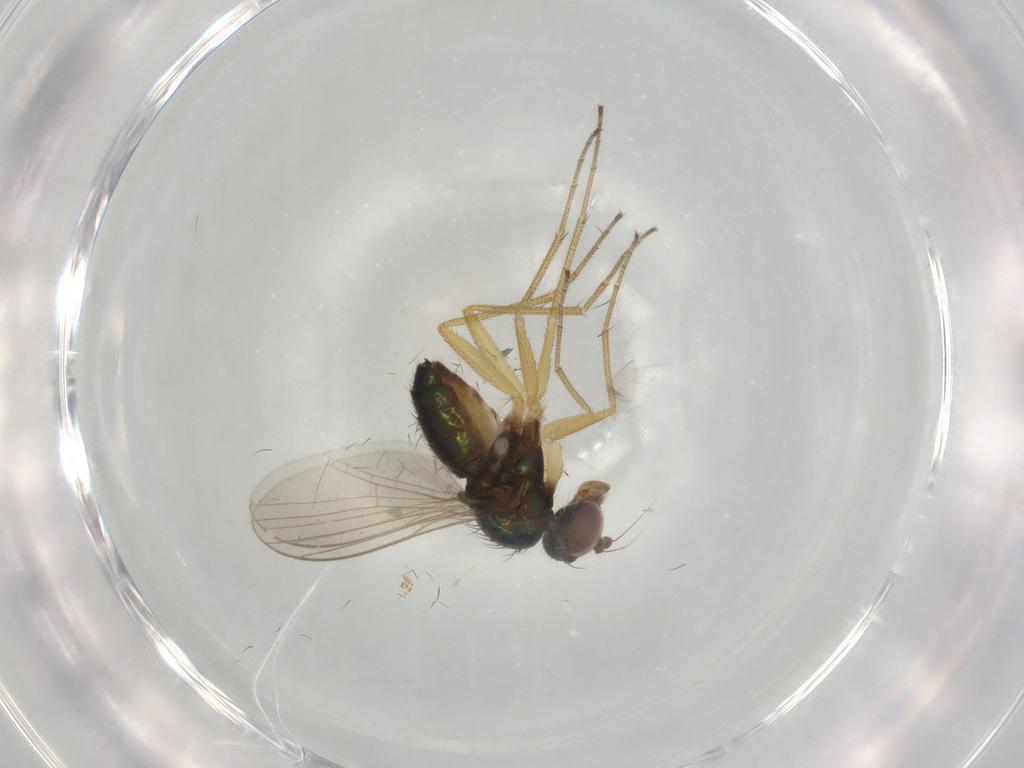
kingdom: Animalia
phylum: Arthropoda
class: Insecta
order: Diptera
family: Dolichopodidae
